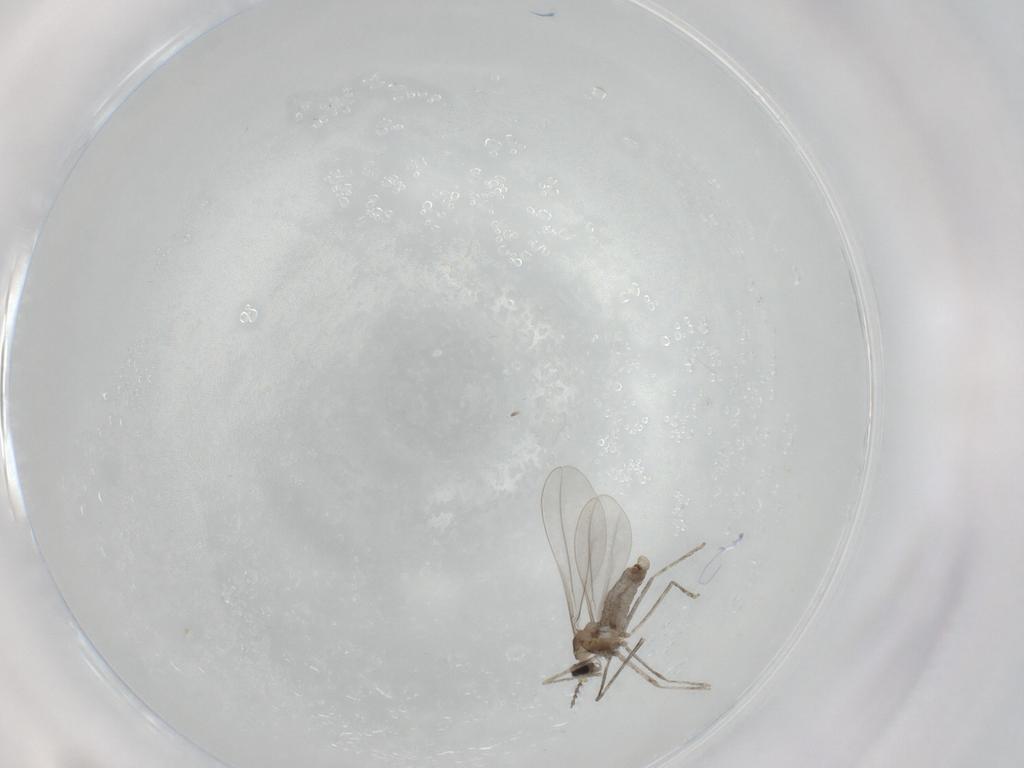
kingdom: Animalia
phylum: Arthropoda
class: Insecta
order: Diptera
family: Cecidomyiidae
